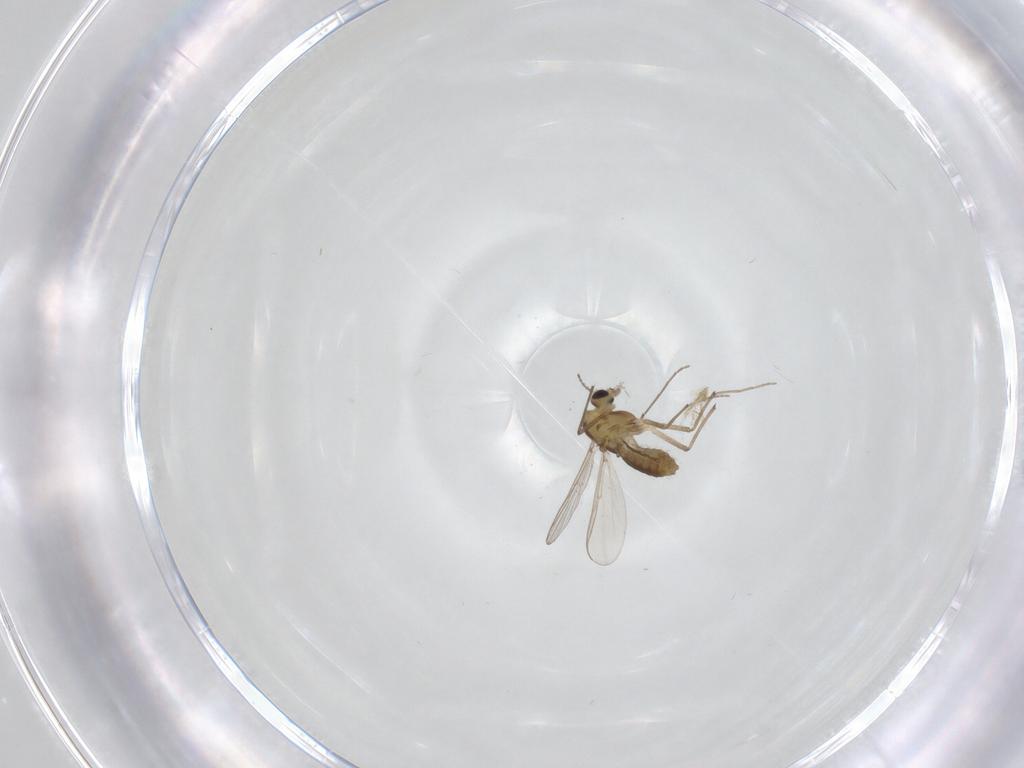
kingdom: Animalia
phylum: Arthropoda
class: Insecta
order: Diptera
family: Chironomidae
